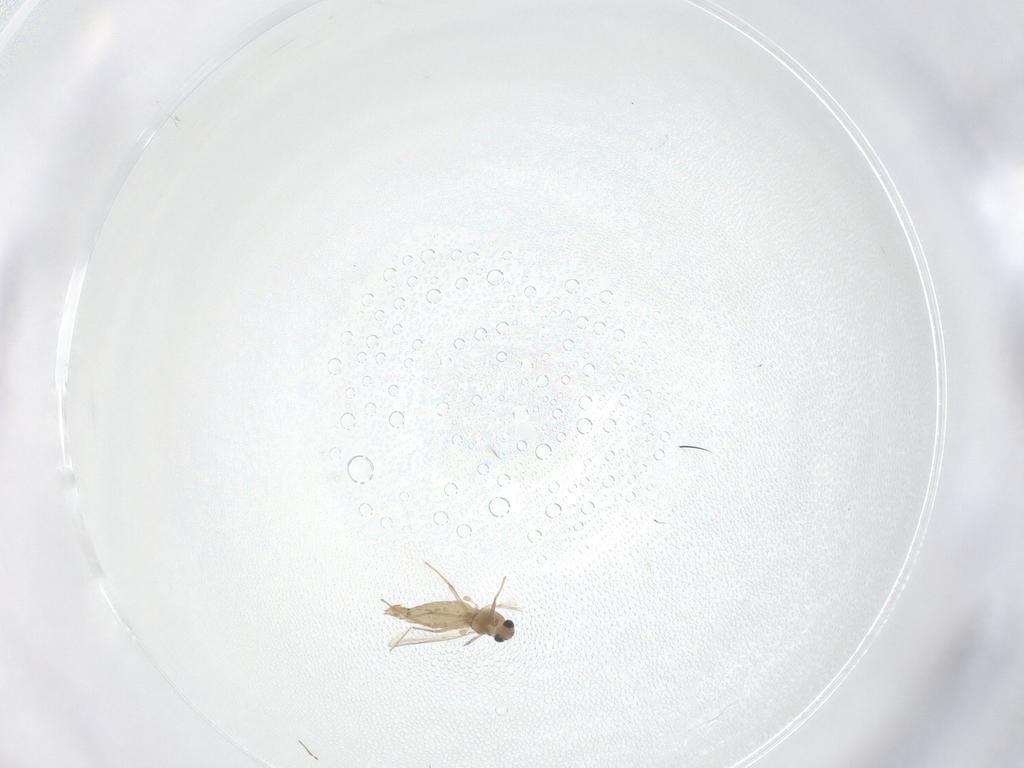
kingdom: Animalia
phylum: Arthropoda
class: Insecta
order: Diptera
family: Chironomidae
